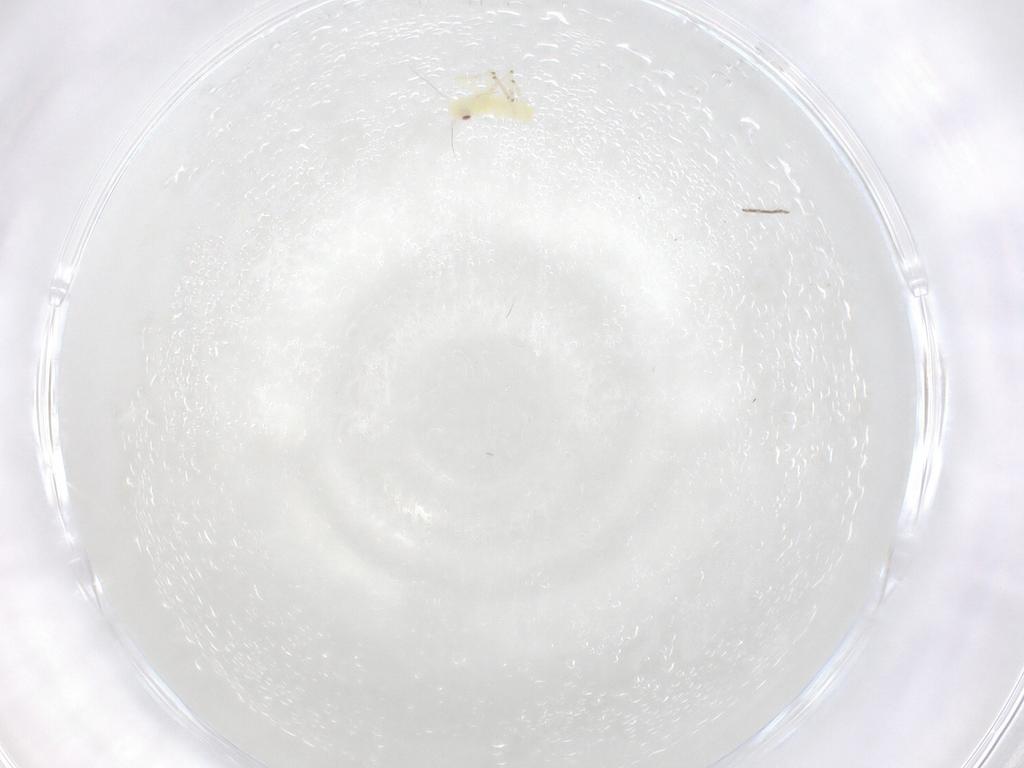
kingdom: Animalia
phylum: Arthropoda
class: Insecta
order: Hemiptera
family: Cicadellidae
